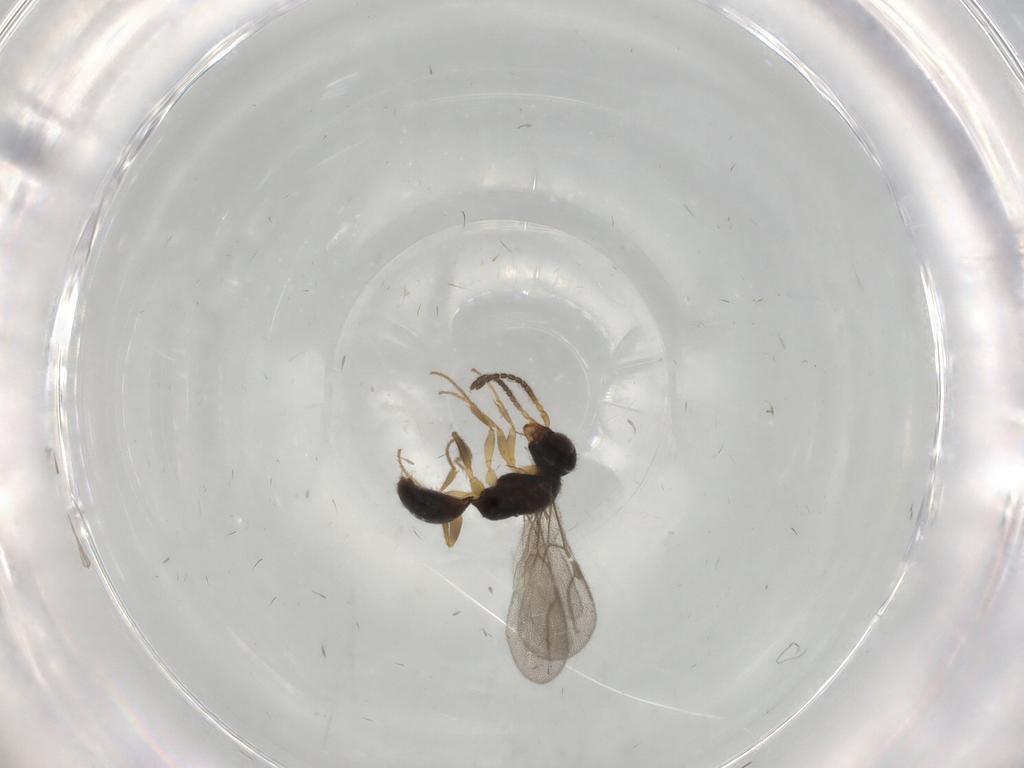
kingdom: Animalia
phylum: Arthropoda
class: Insecta
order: Hymenoptera
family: Bethylidae
